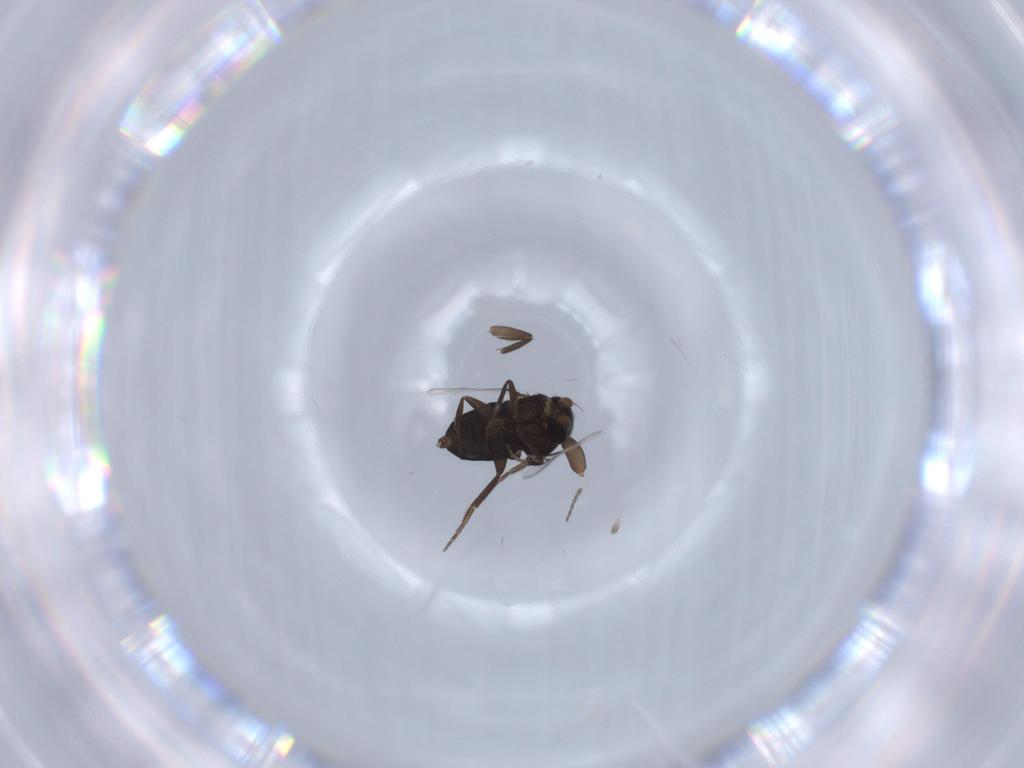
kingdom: Animalia
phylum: Arthropoda
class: Insecta
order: Diptera
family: Phoridae
